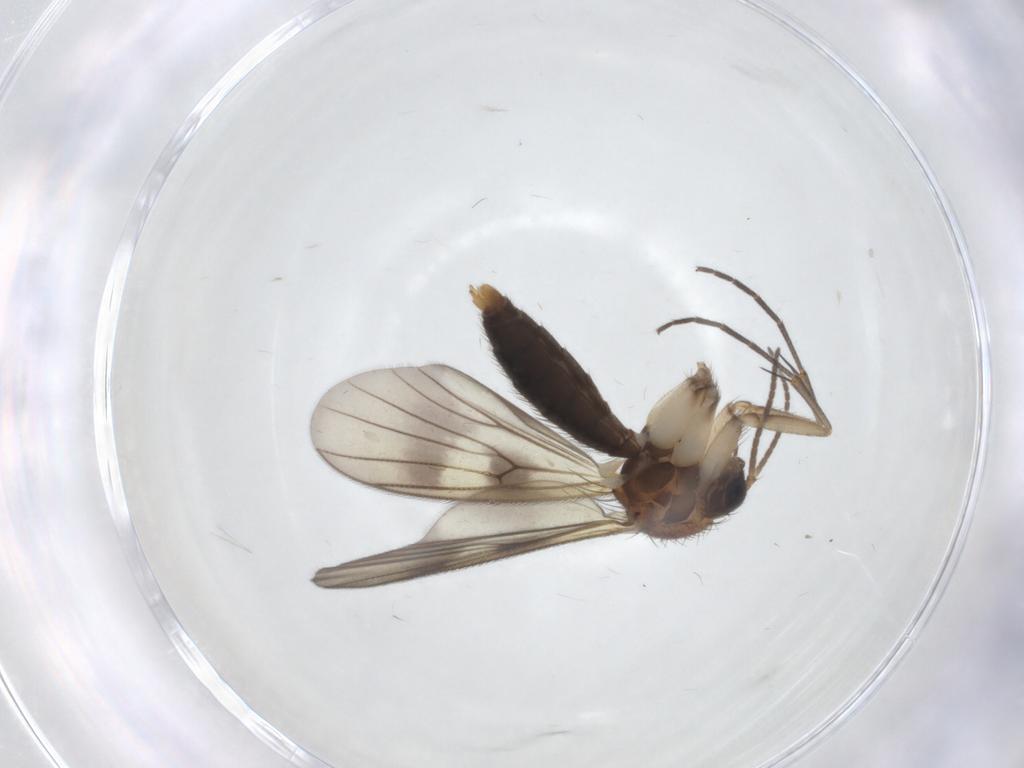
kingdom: Animalia
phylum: Arthropoda
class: Insecta
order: Diptera
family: Mycetophilidae
